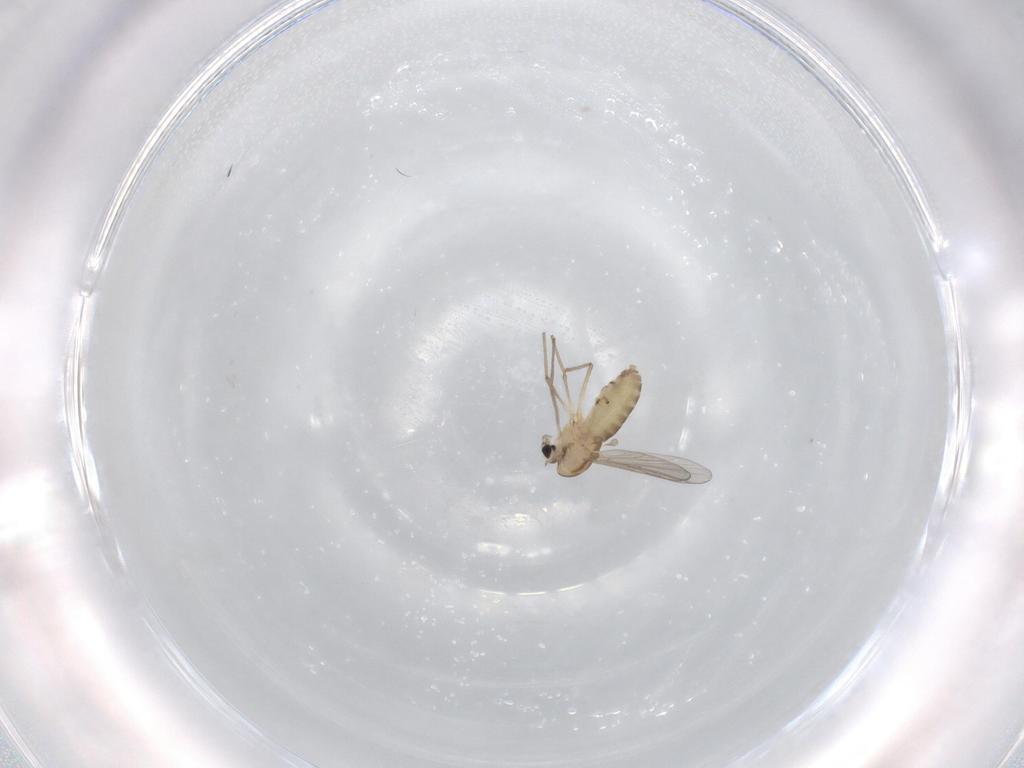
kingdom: Animalia
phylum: Arthropoda
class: Insecta
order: Diptera
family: Chironomidae
